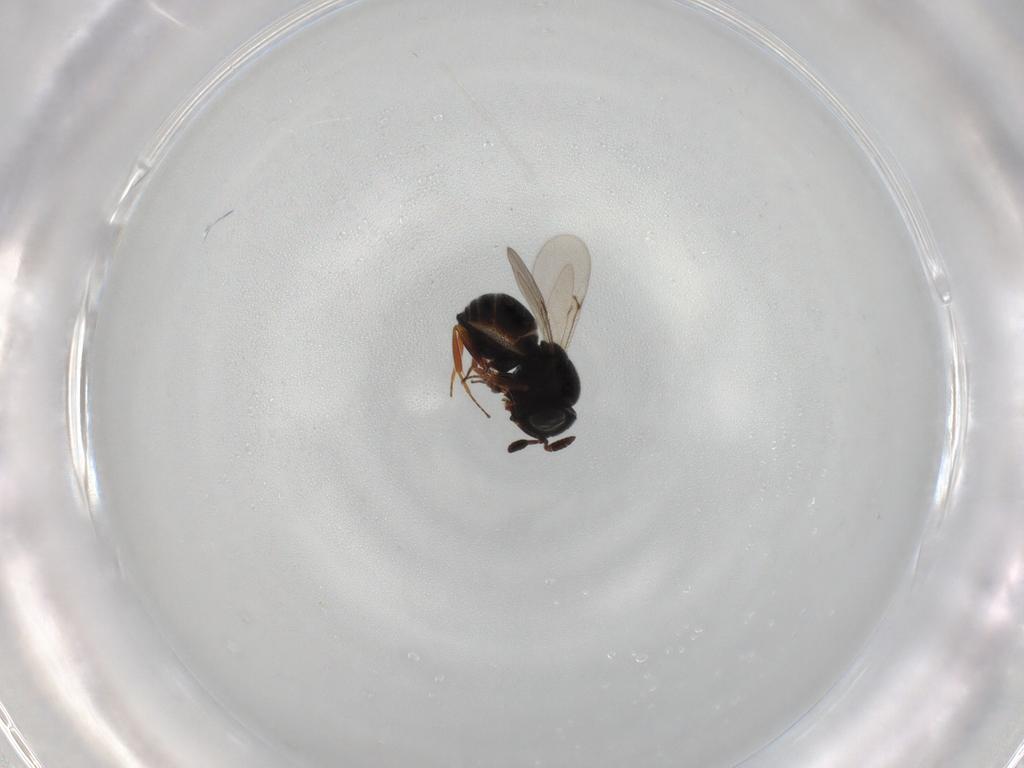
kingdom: Animalia
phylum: Arthropoda
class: Insecta
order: Hymenoptera
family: Scelionidae
